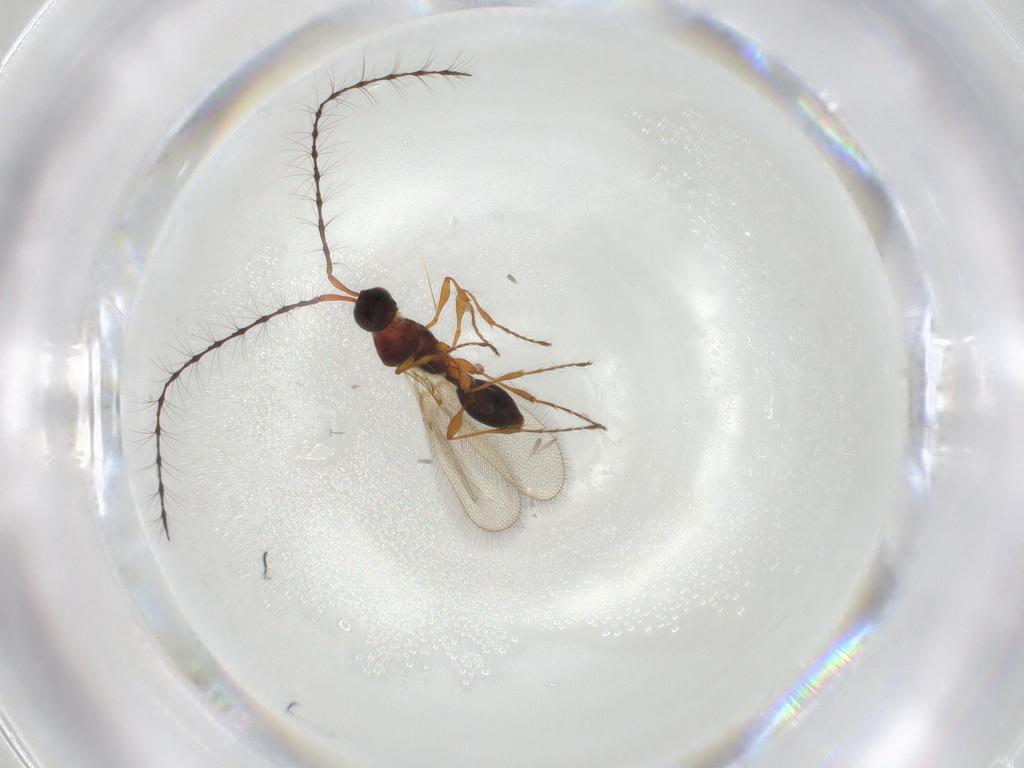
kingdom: Animalia
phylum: Arthropoda
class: Insecta
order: Hymenoptera
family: Diapriidae
